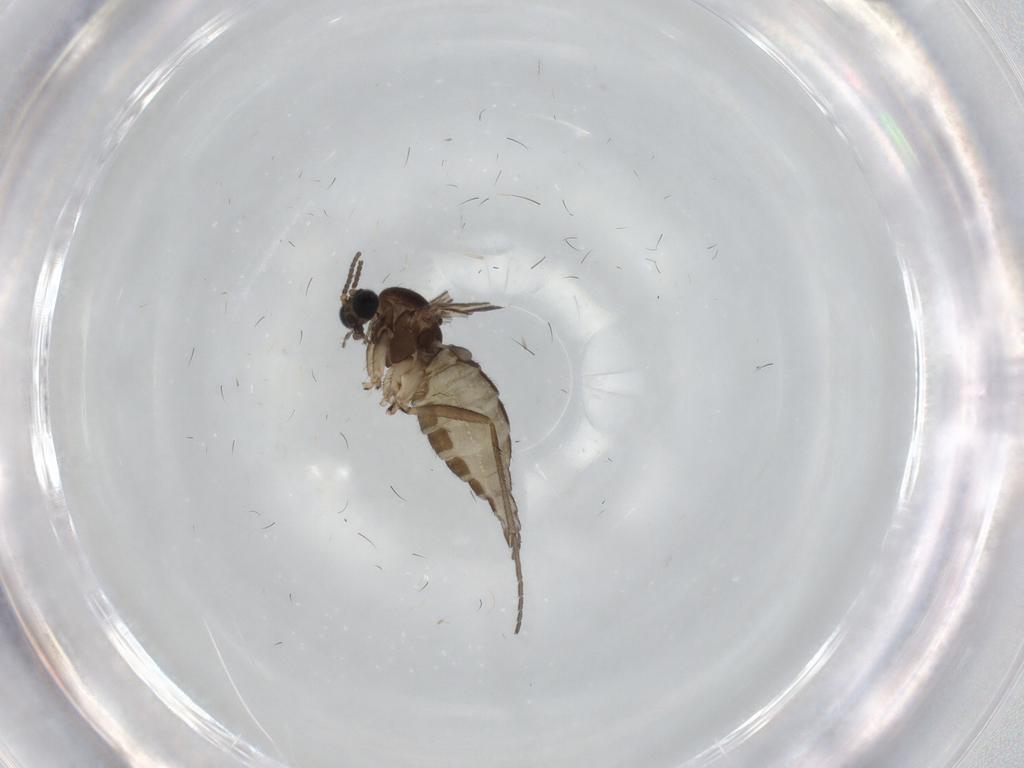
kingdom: Animalia
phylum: Arthropoda
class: Insecta
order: Diptera
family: Sciaridae
